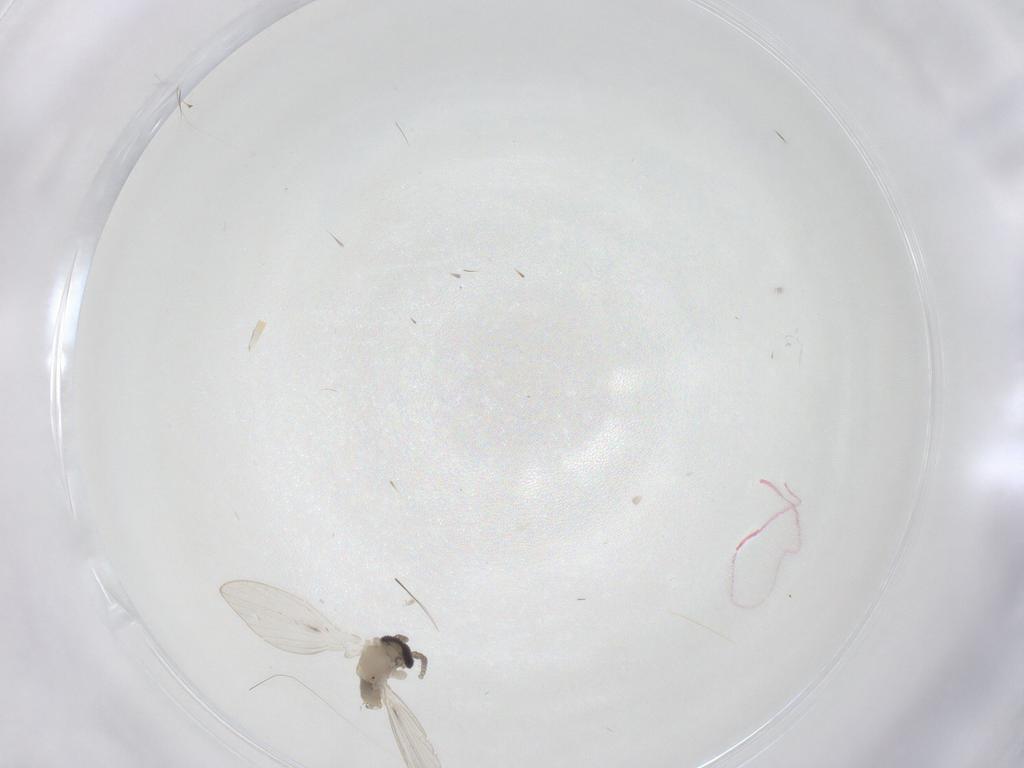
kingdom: Animalia
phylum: Arthropoda
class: Insecta
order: Diptera
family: Psychodidae
